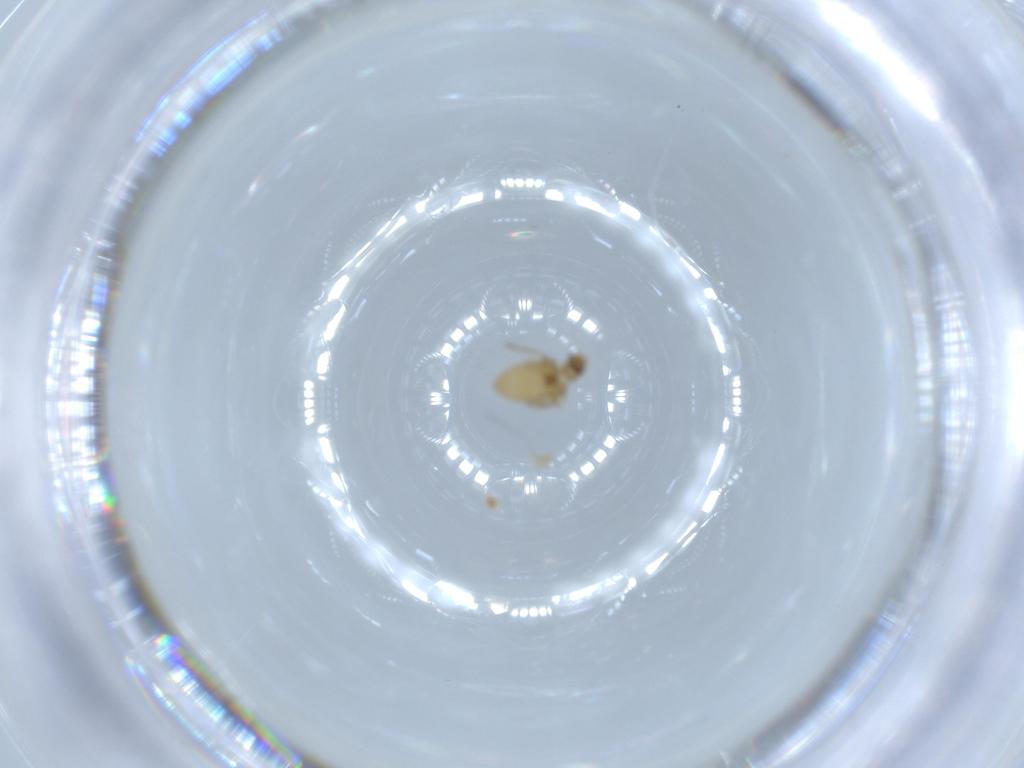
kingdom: Animalia
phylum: Arthropoda
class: Insecta
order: Diptera
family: Phoridae
